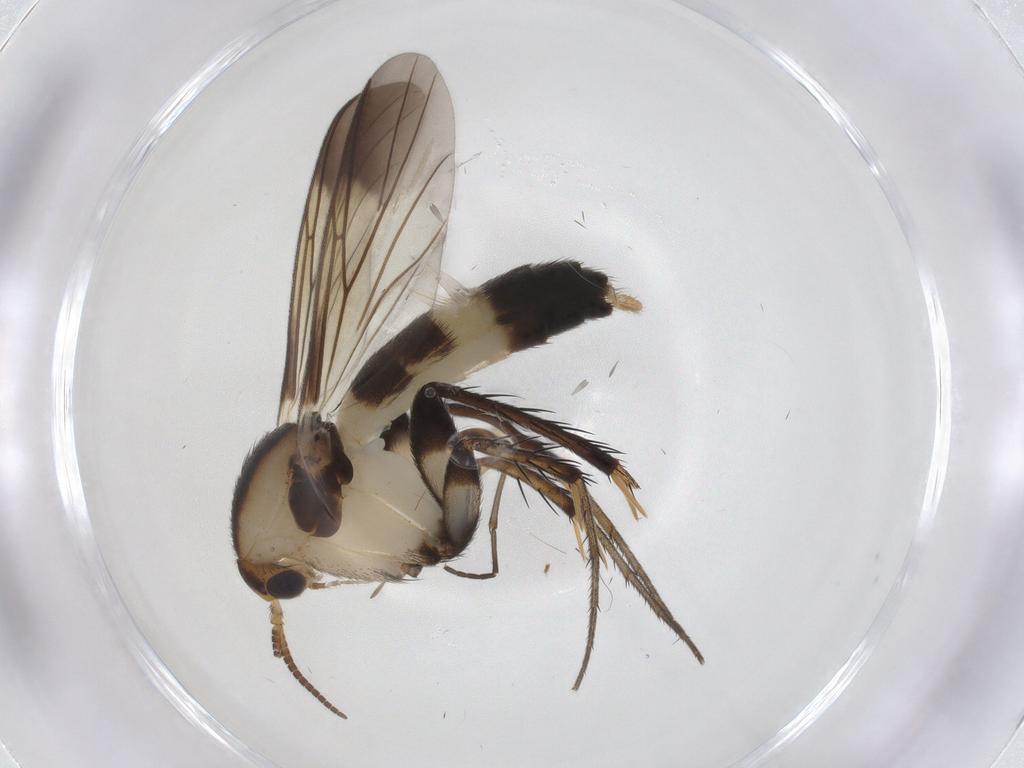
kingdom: Animalia
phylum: Arthropoda
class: Insecta
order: Diptera
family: Mycetophilidae
